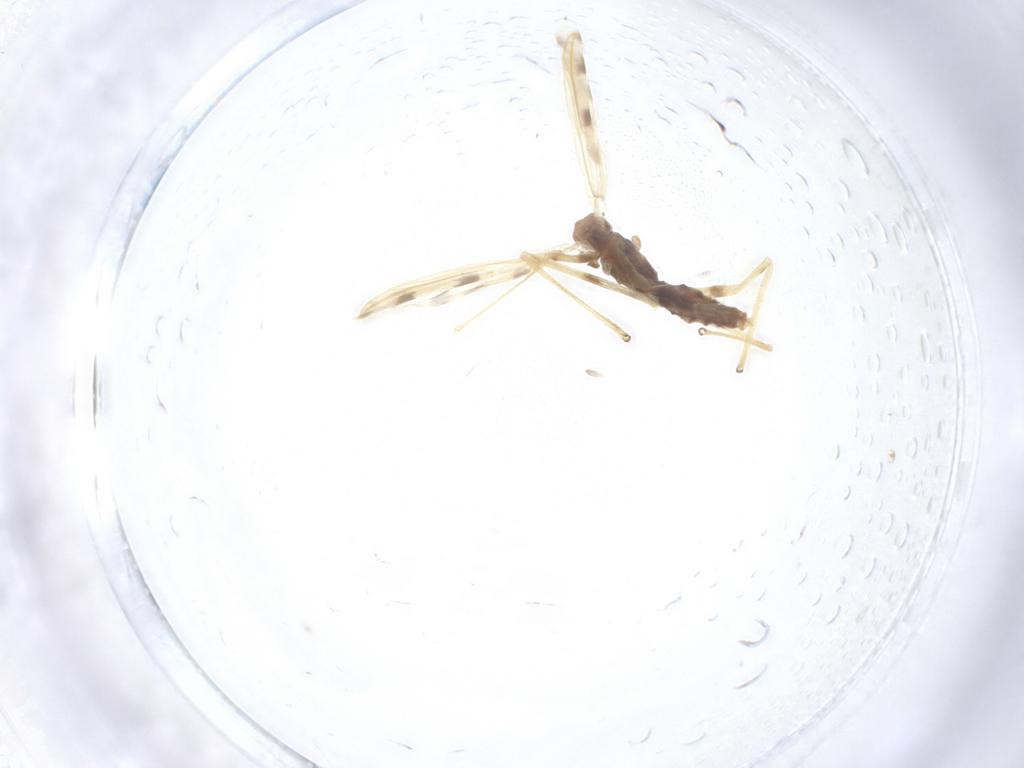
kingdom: Animalia
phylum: Arthropoda
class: Insecta
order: Diptera
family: Chironomidae
